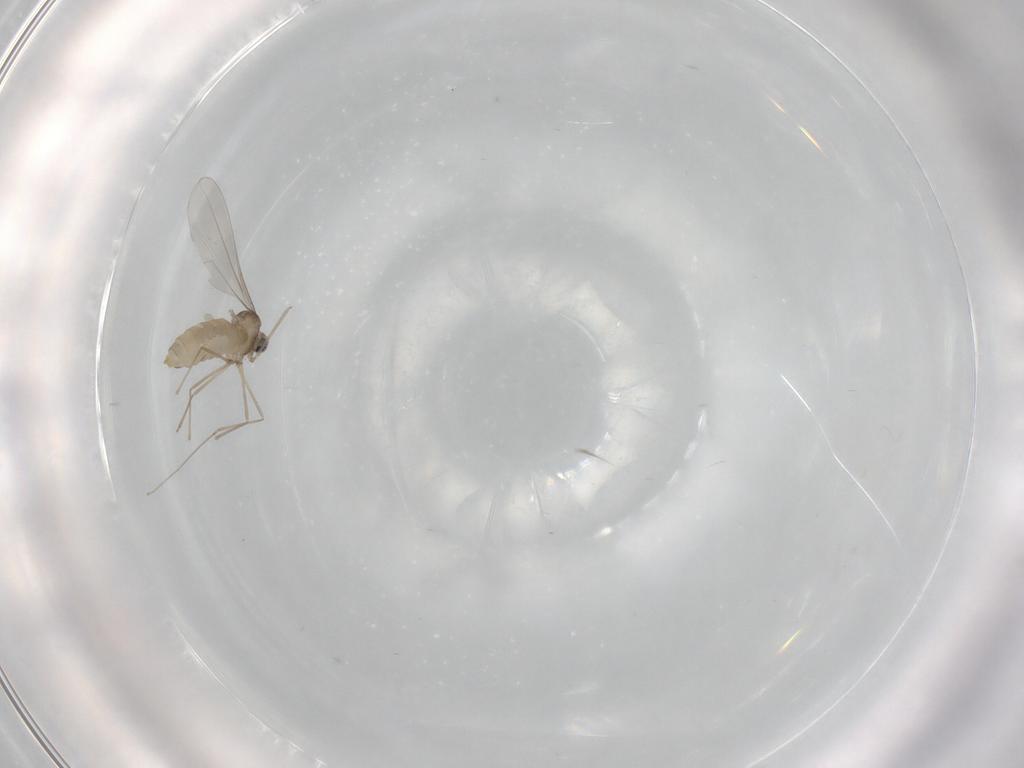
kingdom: Animalia
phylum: Arthropoda
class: Insecta
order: Diptera
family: Cecidomyiidae
